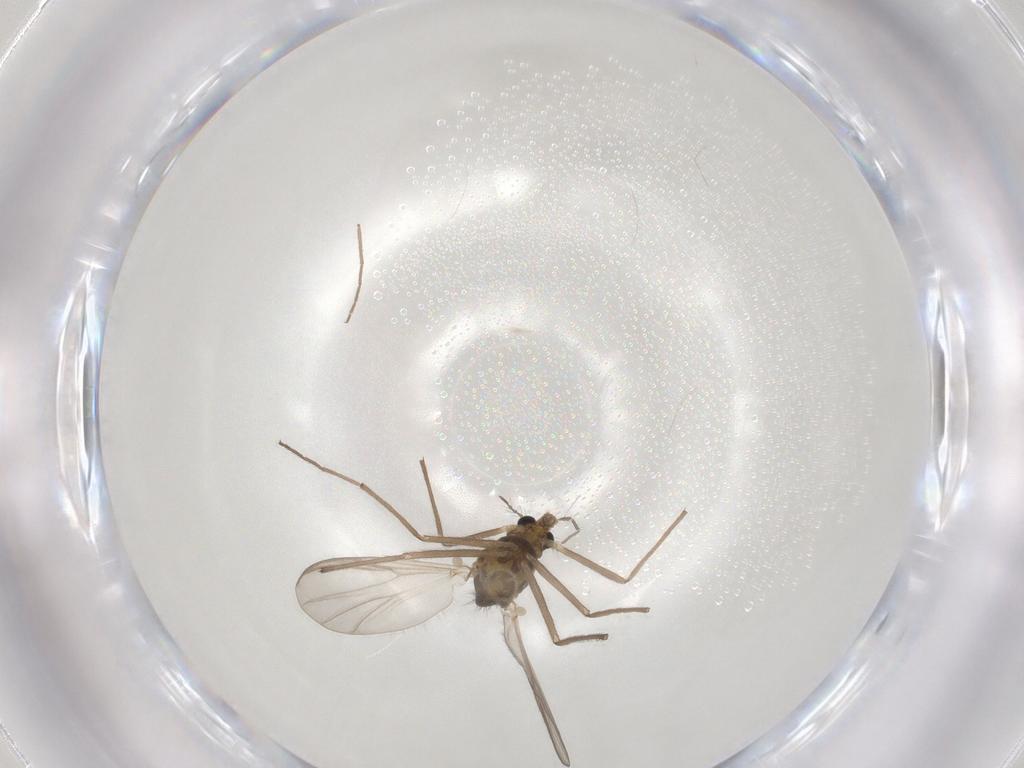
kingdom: Animalia
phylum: Arthropoda
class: Insecta
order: Diptera
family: Chironomidae
